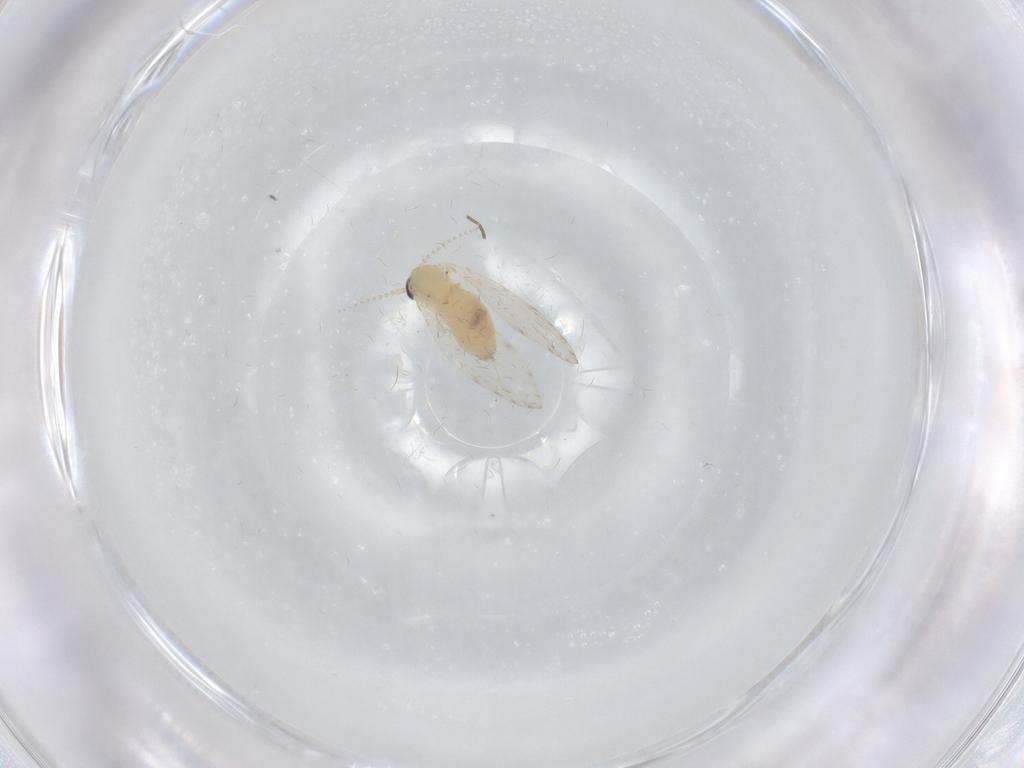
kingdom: Animalia
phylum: Arthropoda
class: Insecta
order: Diptera
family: Psychodidae
